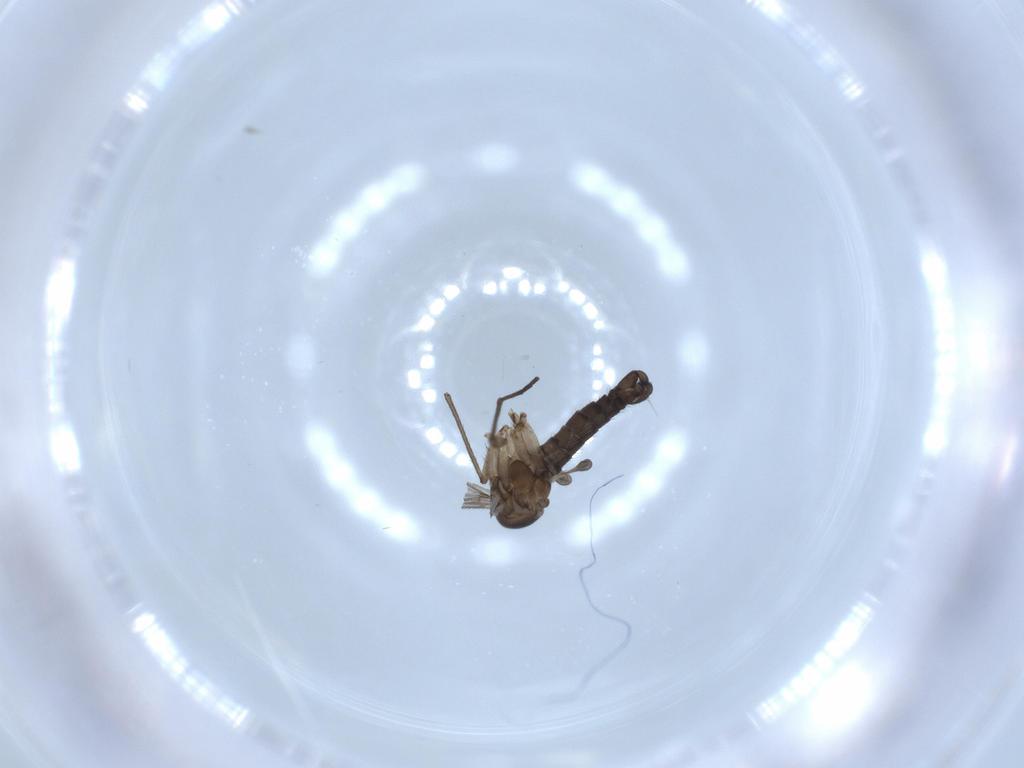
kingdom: Animalia
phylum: Arthropoda
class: Insecta
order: Diptera
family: Sciaridae
